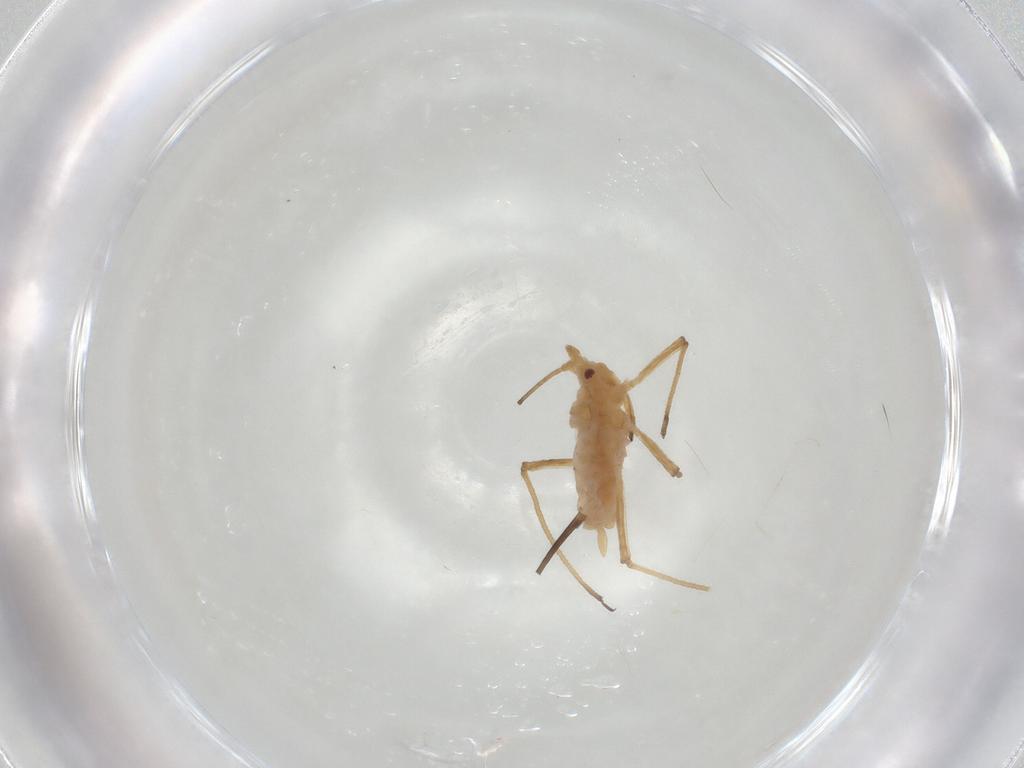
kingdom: Animalia
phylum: Arthropoda
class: Insecta
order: Hemiptera
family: Aphididae
